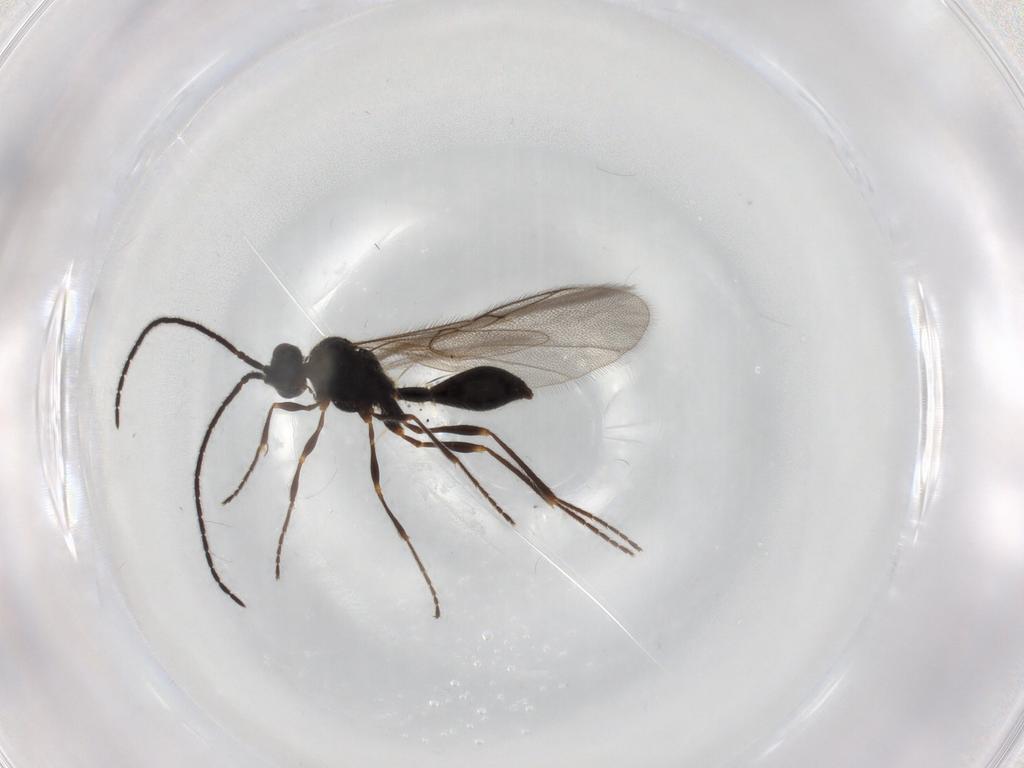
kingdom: Animalia
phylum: Arthropoda
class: Insecta
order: Hymenoptera
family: Diapriidae
